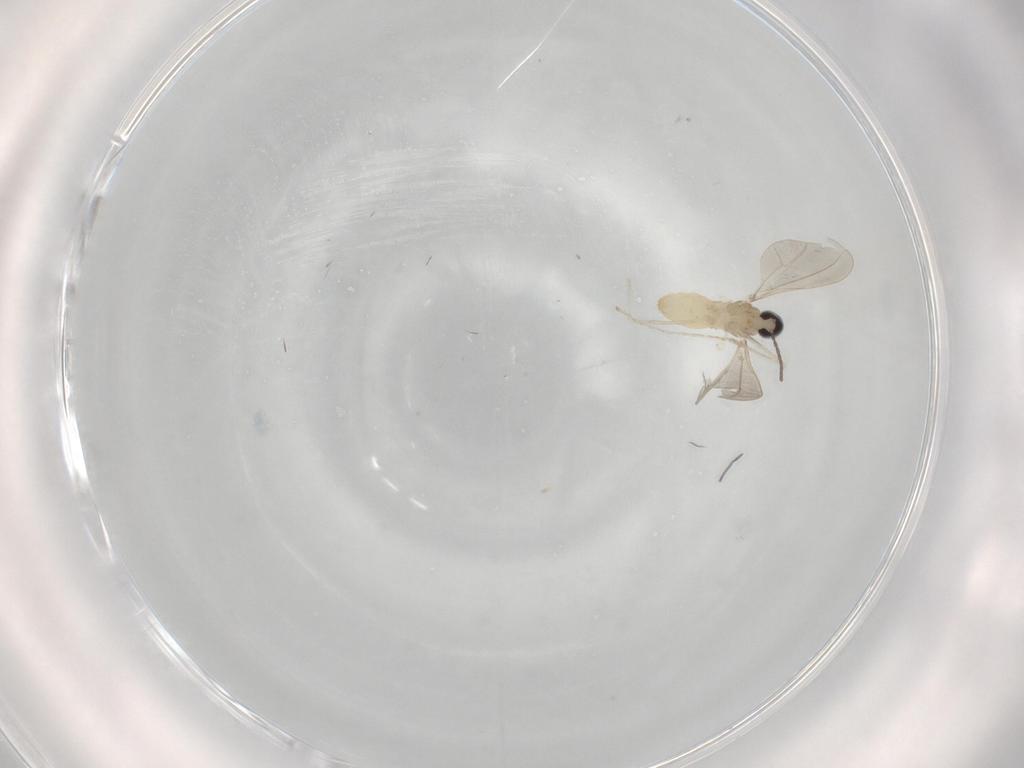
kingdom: Animalia
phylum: Arthropoda
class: Insecta
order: Diptera
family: Cecidomyiidae
